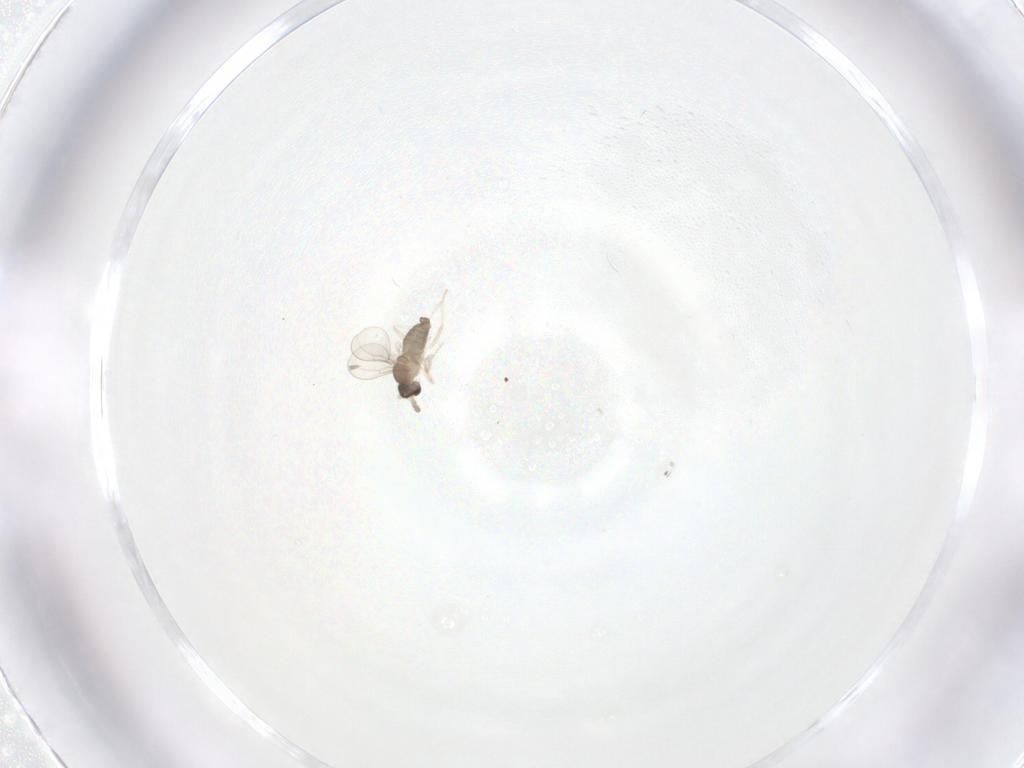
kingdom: Animalia
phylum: Arthropoda
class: Insecta
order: Diptera
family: Cecidomyiidae
